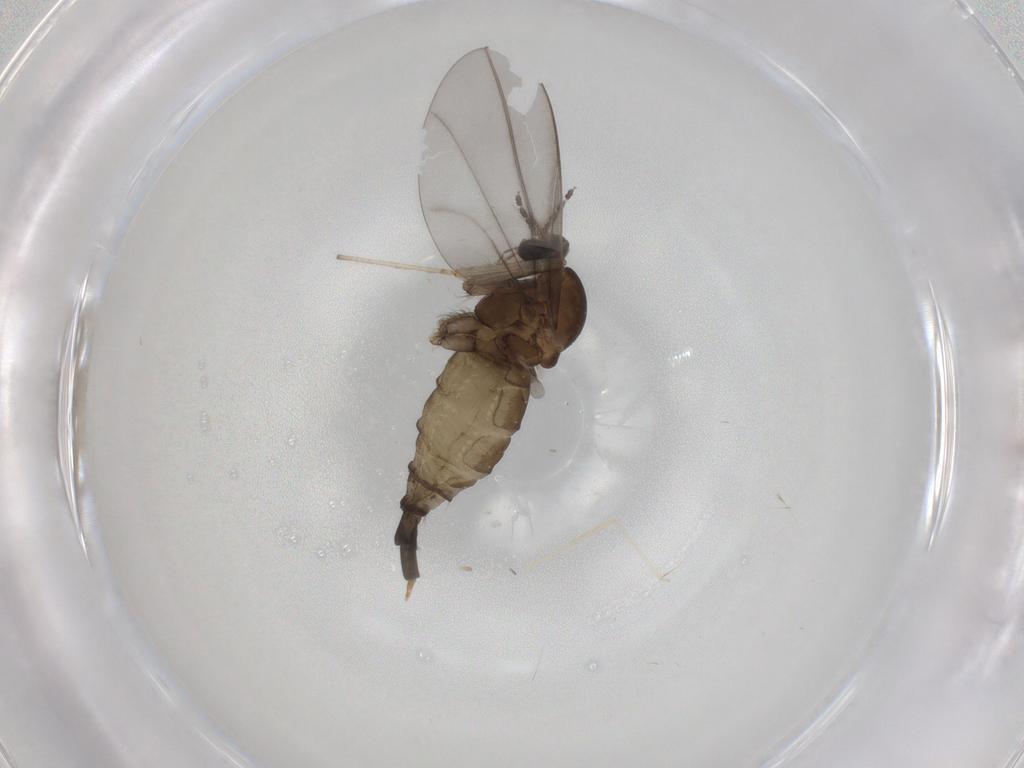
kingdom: Animalia
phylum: Arthropoda
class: Insecta
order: Diptera
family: Cecidomyiidae
